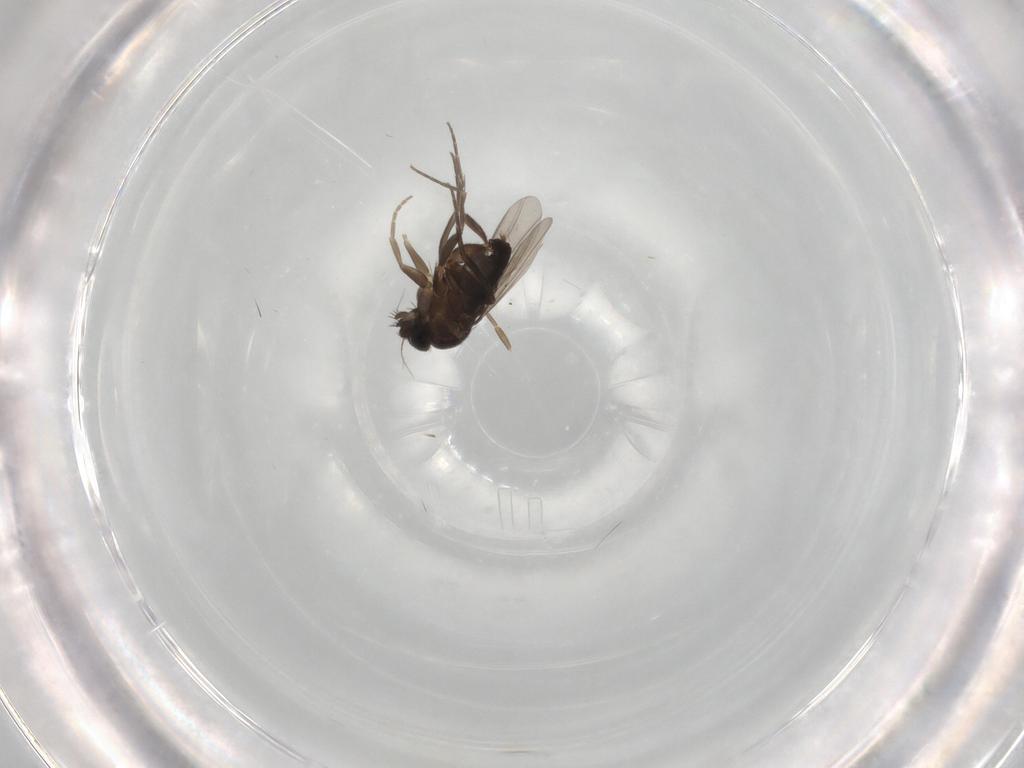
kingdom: Animalia
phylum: Arthropoda
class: Insecta
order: Diptera
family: Phoridae
